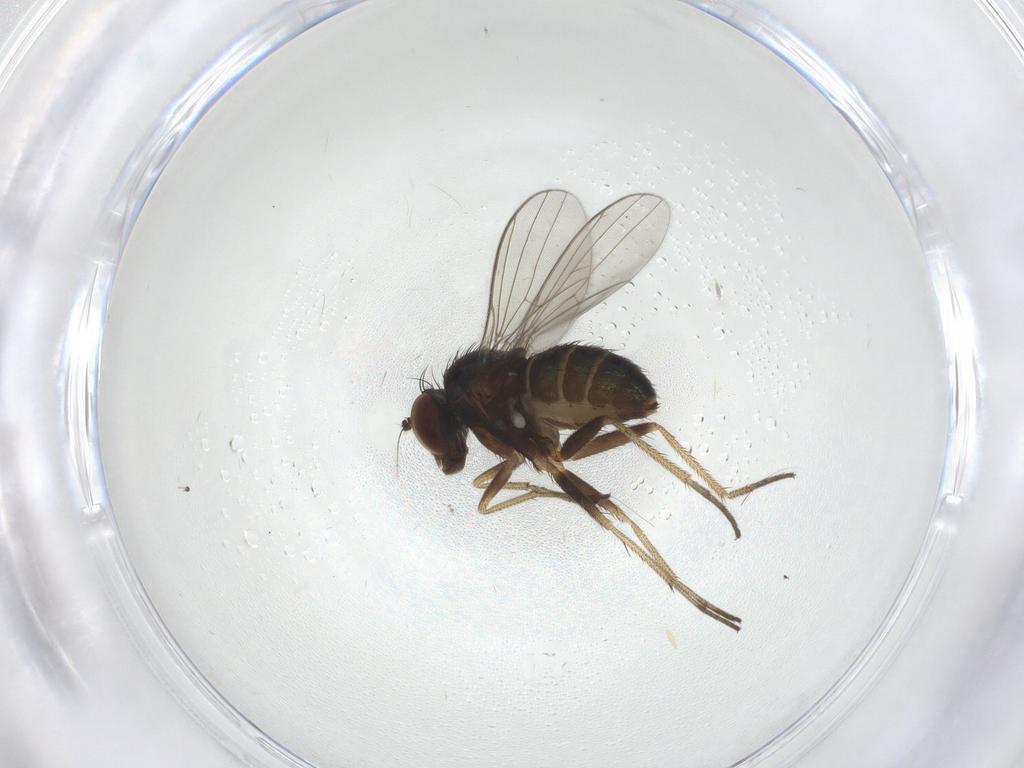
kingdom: Animalia
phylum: Arthropoda
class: Insecta
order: Diptera
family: Dolichopodidae
